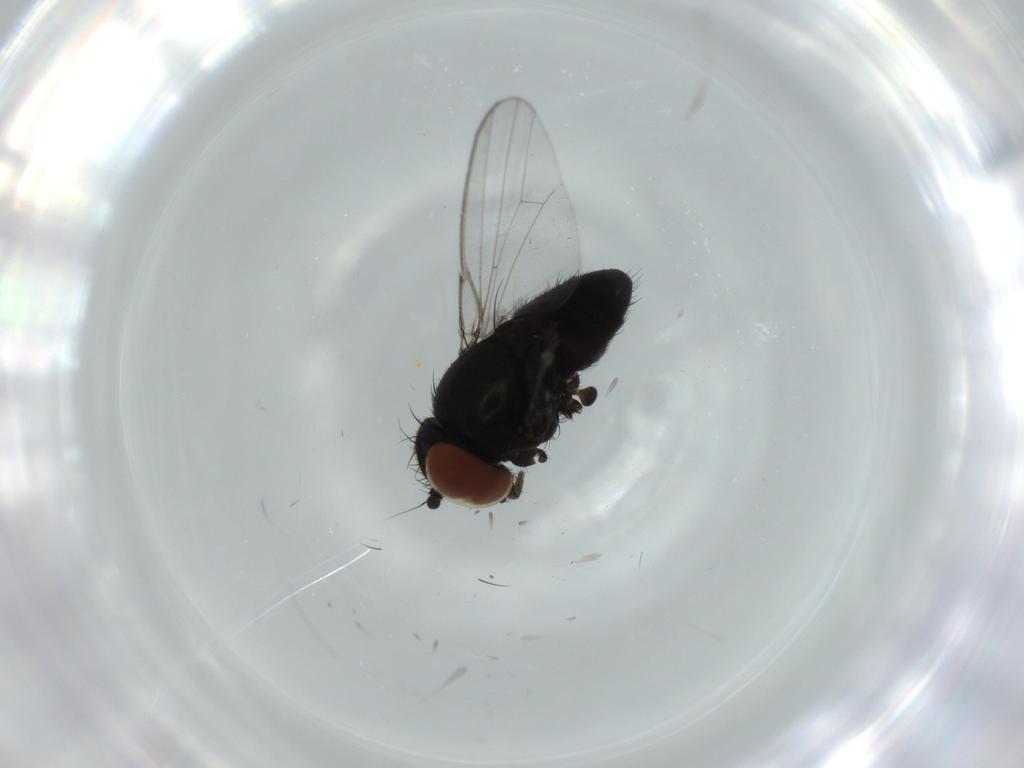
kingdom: Animalia
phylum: Arthropoda
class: Insecta
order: Diptera
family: Milichiidae
